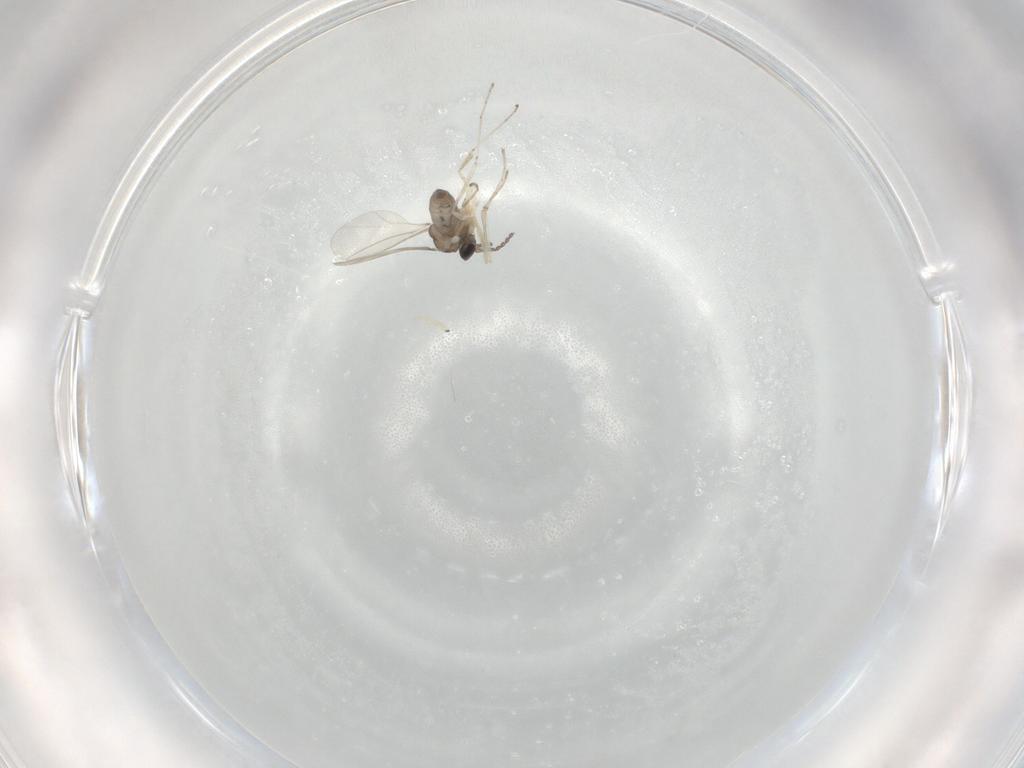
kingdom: Animalia
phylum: Arthropoda
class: Insecta
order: Diptera
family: Cecidomyiidae
